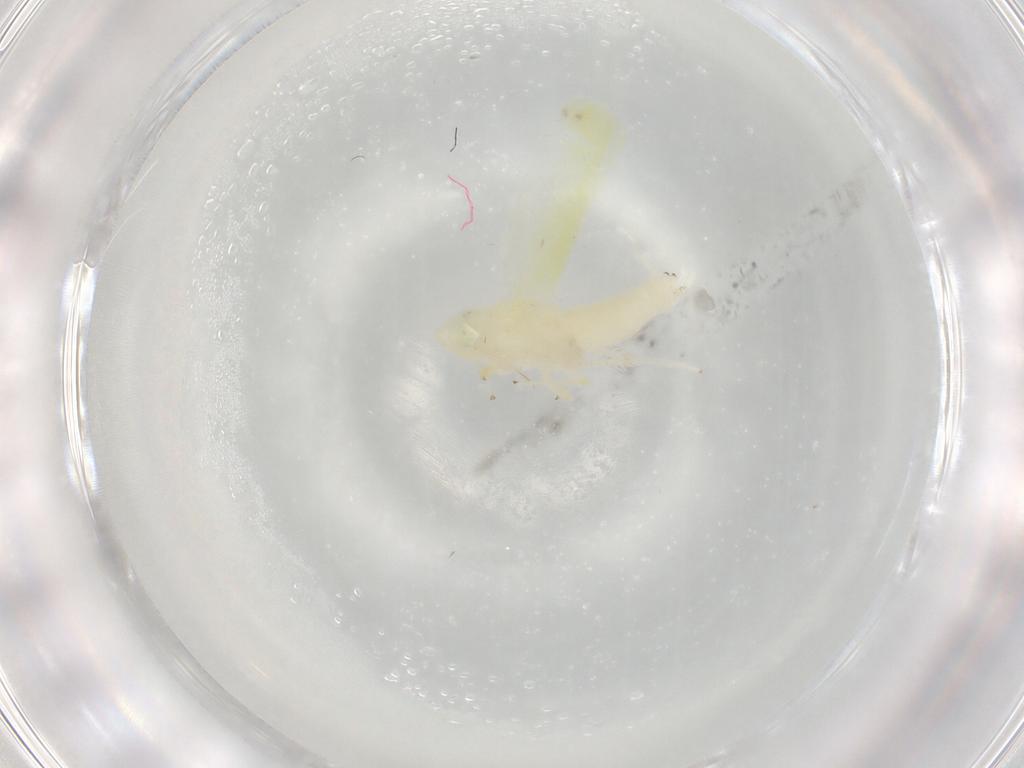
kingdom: Animalia
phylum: Arthropoda
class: Insecta
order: Hemiptera
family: Cicadellidae
